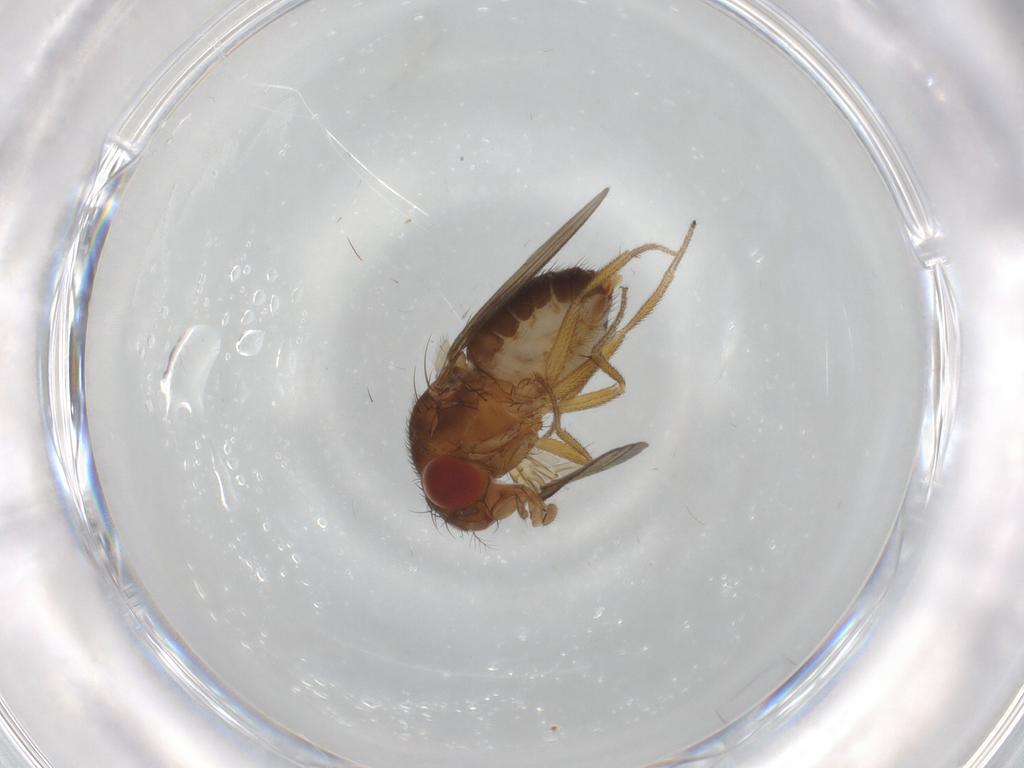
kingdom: Animalia
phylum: Arthropoda
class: Insecta
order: Diptera
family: Drosophilidae
